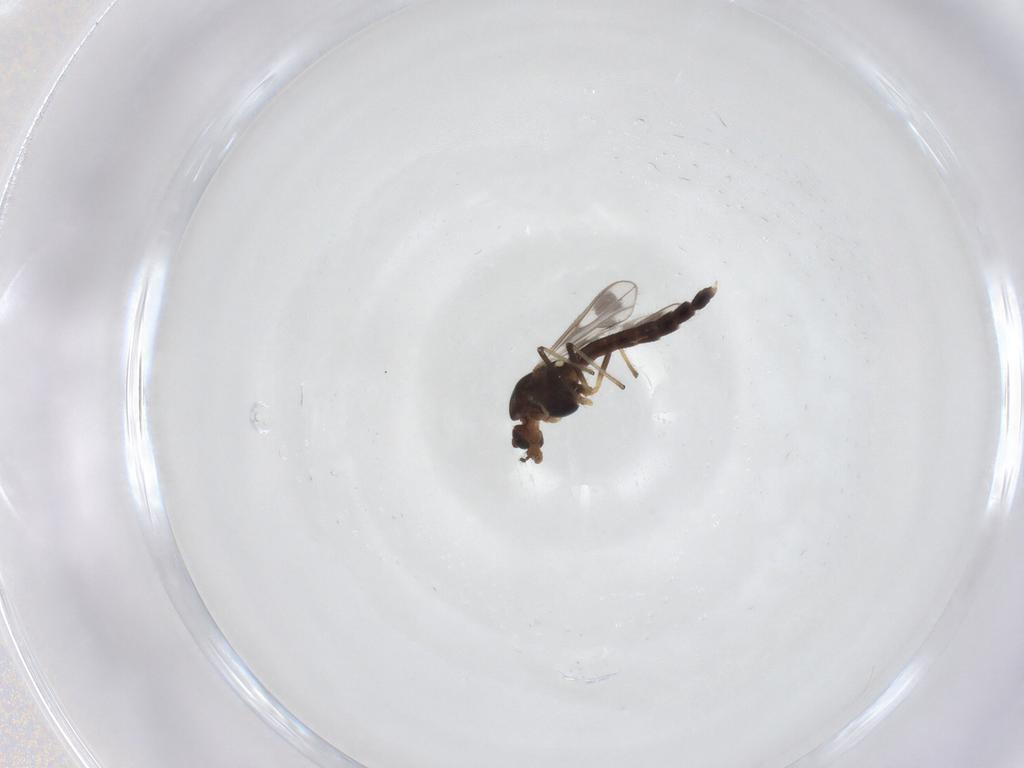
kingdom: Animalia
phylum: Arthropoda
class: Insecta
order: Diptera
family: Chironomidae
